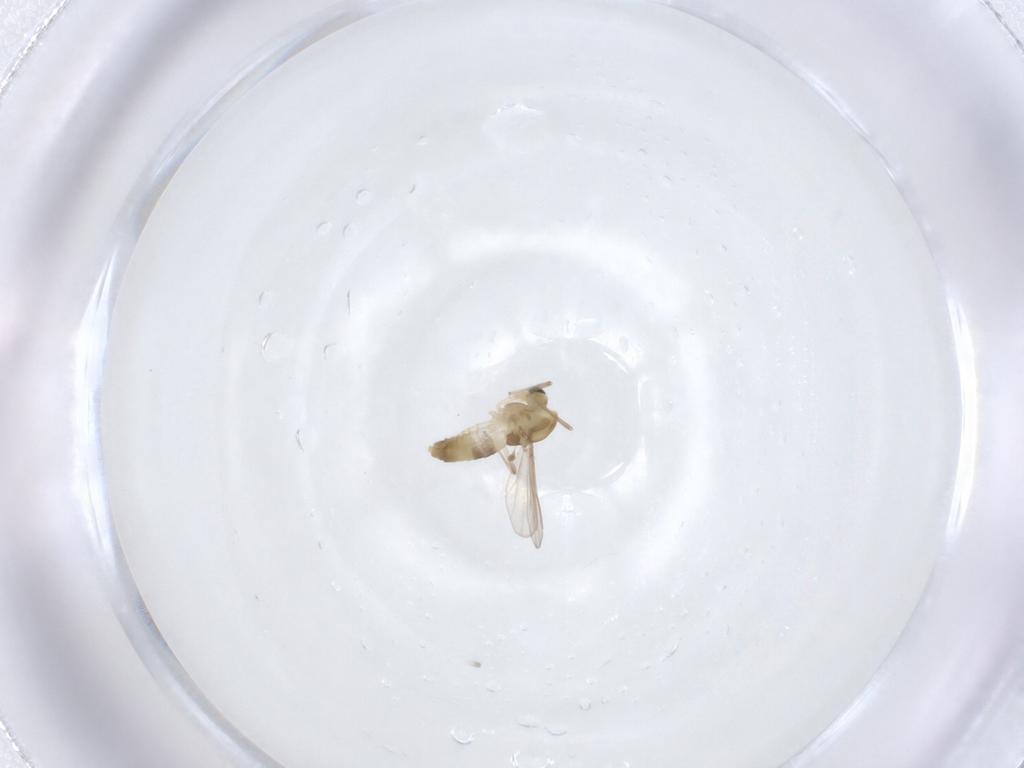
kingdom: Animalia
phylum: Arthropoda
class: Insecta
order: Diptera
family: Chironomidae
